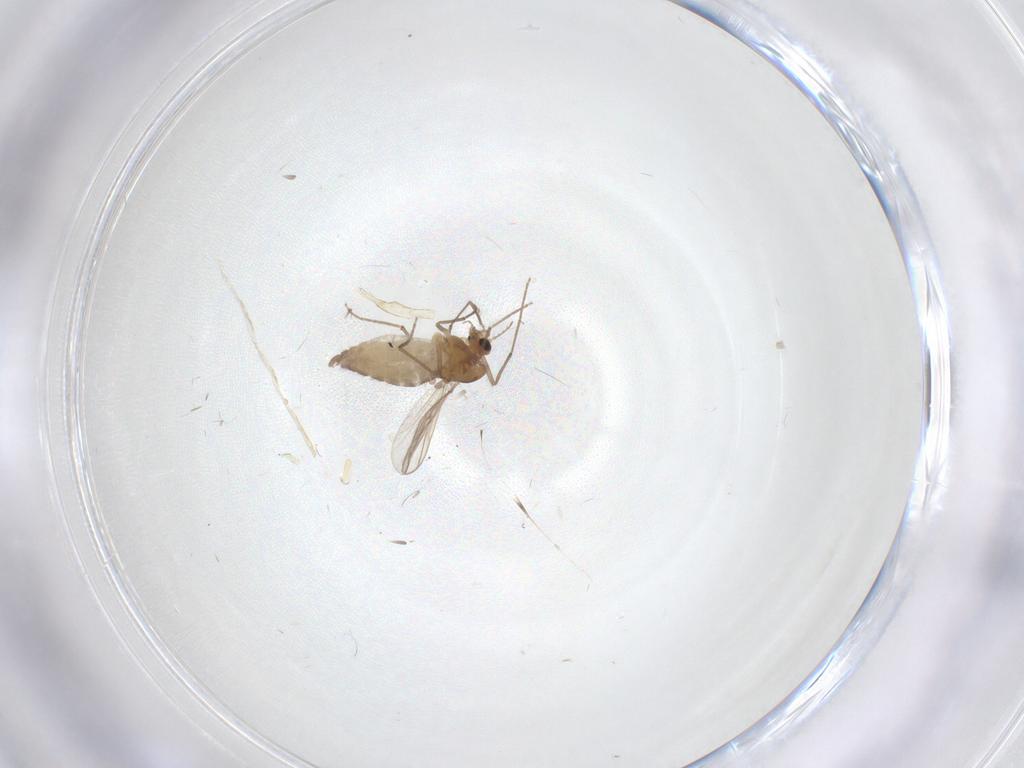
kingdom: Animalia
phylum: Arthropoda
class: Insecta
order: Diptera
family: Chironomidae
